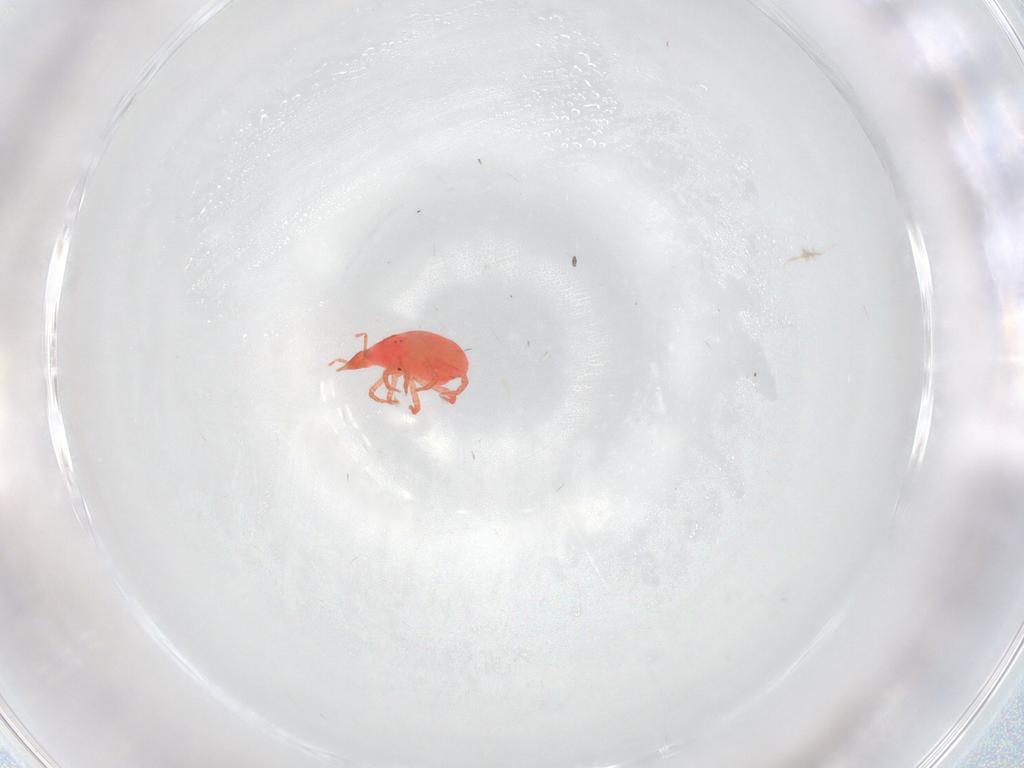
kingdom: Animalia
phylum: Arthropoda
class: Arachnida
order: Trombidiformes
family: Bdellidae
